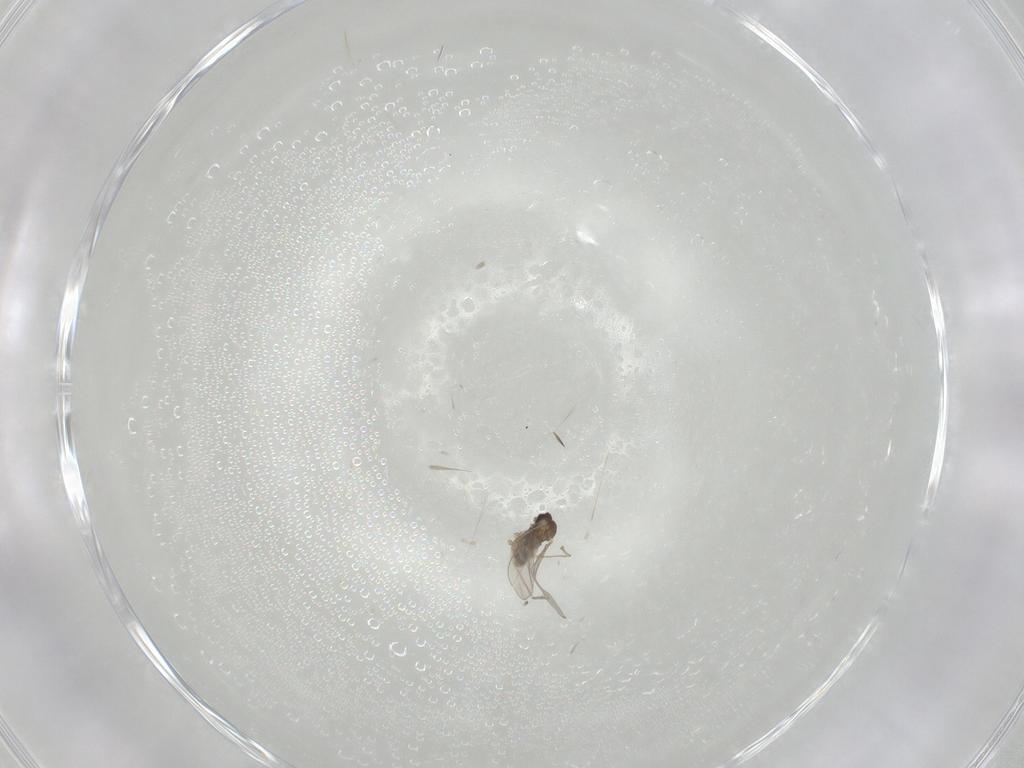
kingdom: Animalia
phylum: Arthropoda
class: Insecta
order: Diptera
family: Cecidomyiidae
